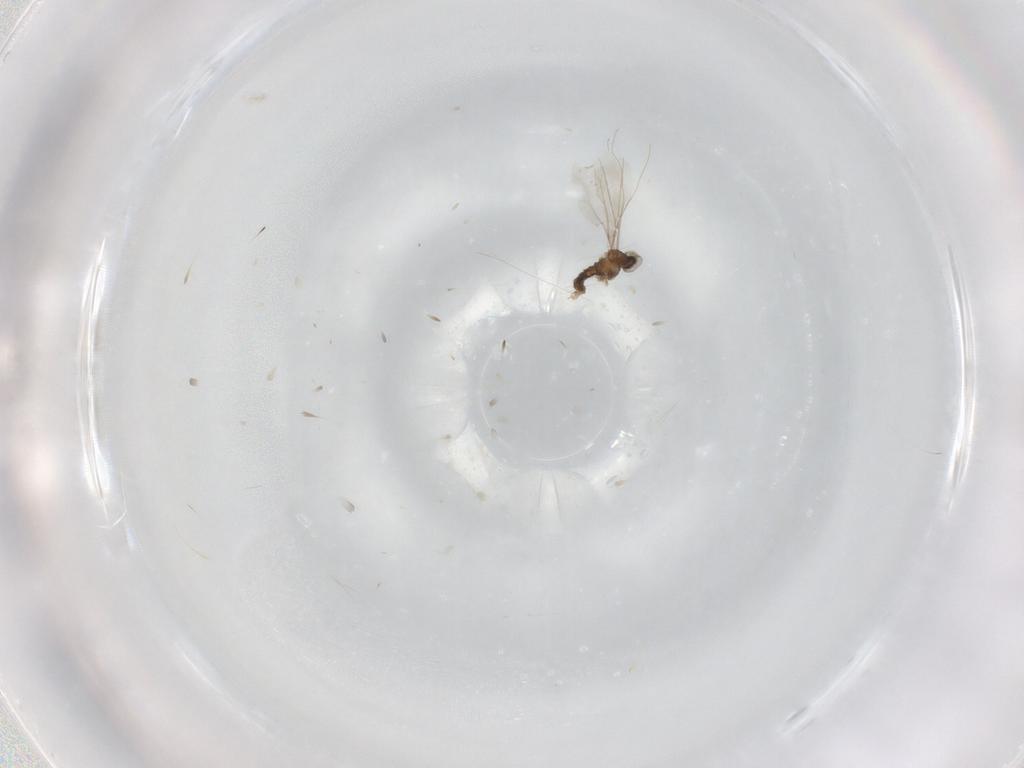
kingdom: Animalia
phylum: Arthropoda
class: Insecta
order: Diptera
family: Cecidomyiidae
